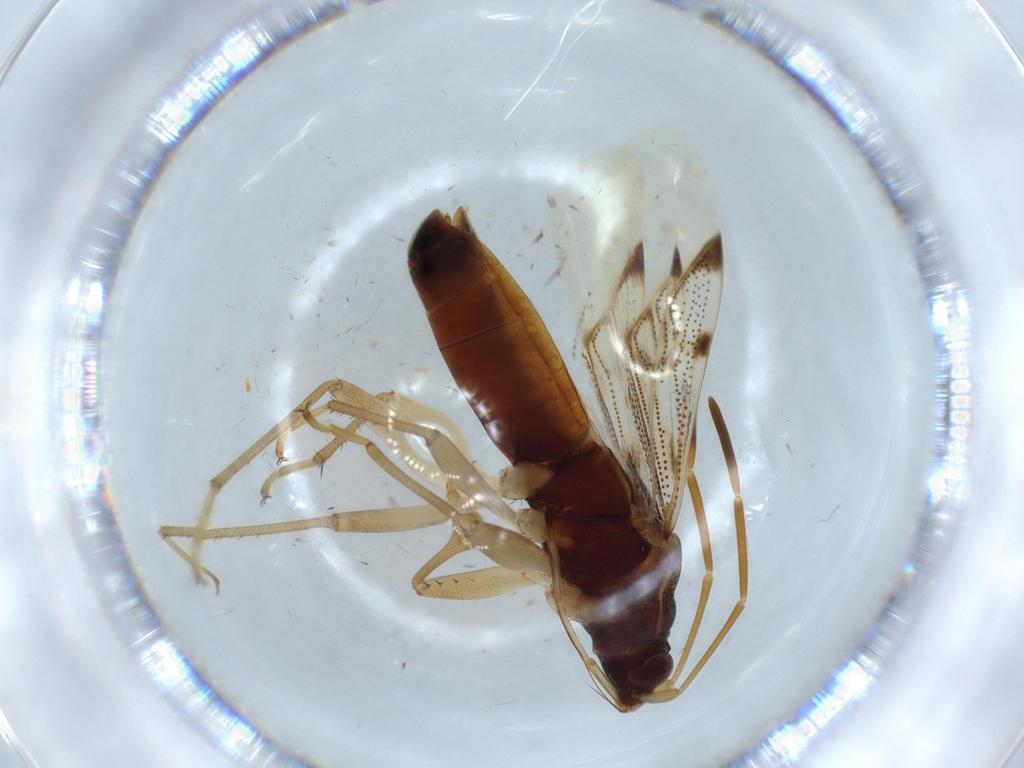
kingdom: Animalia
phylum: Arthropoda
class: Insecta
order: Hemiptera
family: Rhyparochromidae
